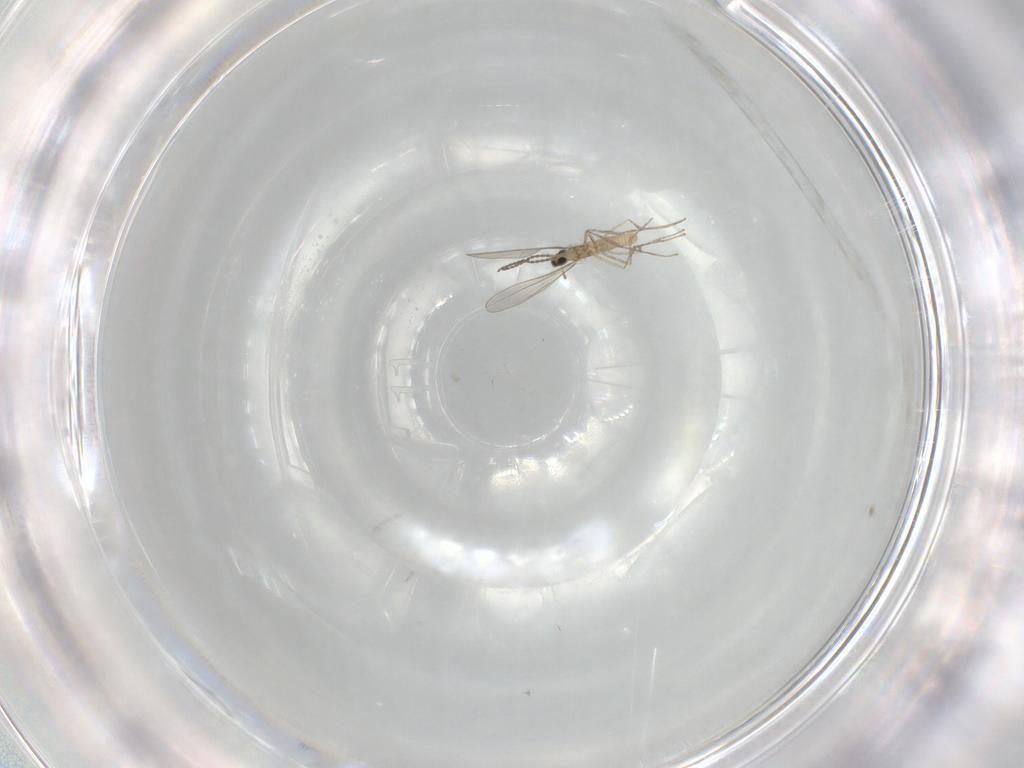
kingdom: Animalia
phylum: Arthropoda
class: Insecta
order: Diptera
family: Cecidomyiidae
